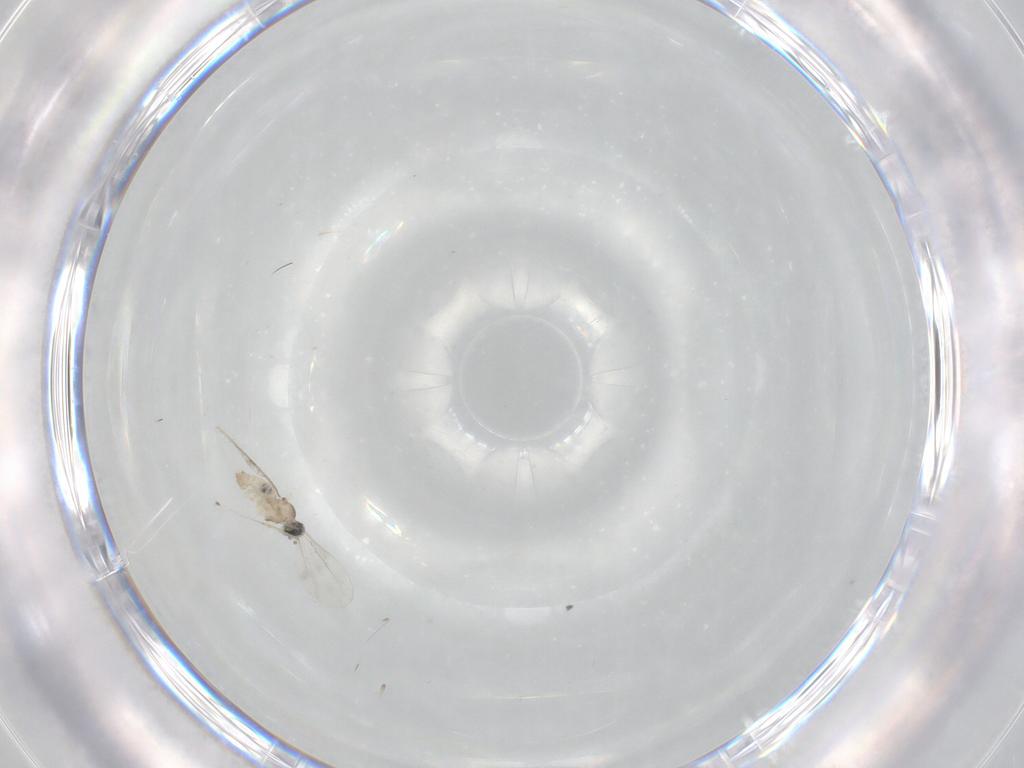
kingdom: Animalia
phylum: Arthropoda
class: Insecta
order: Diptera
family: Cecidomyiidae
